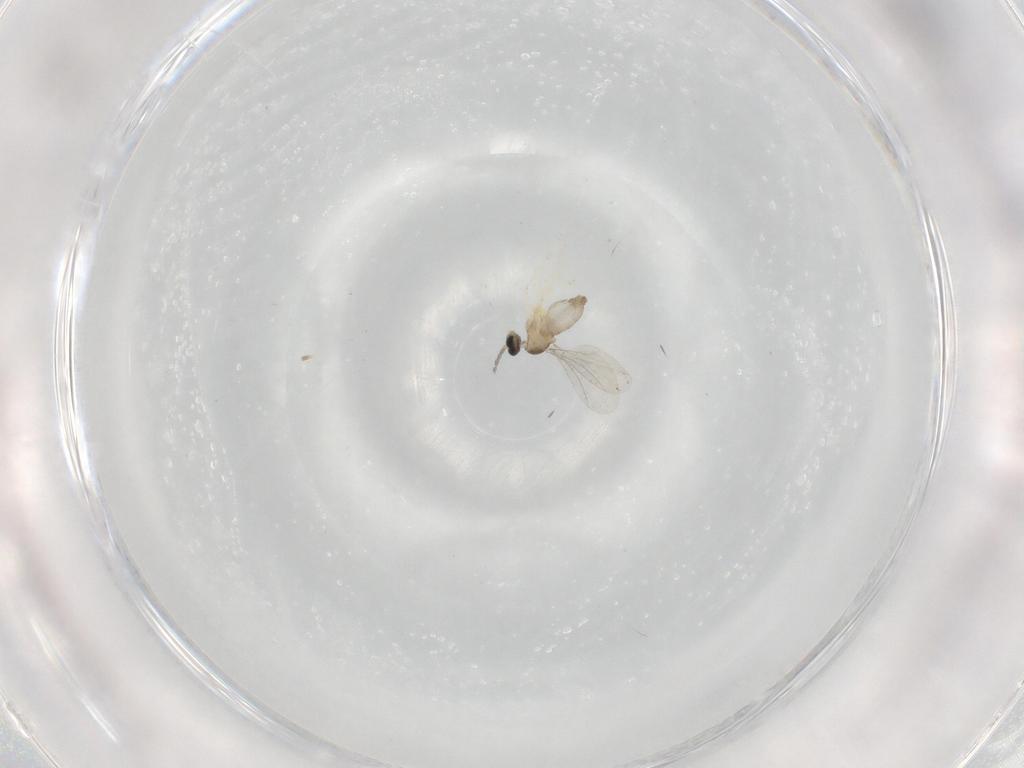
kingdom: Animalia
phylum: Arthropoda
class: Insecta
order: Diptera
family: Cecidomyiidae
